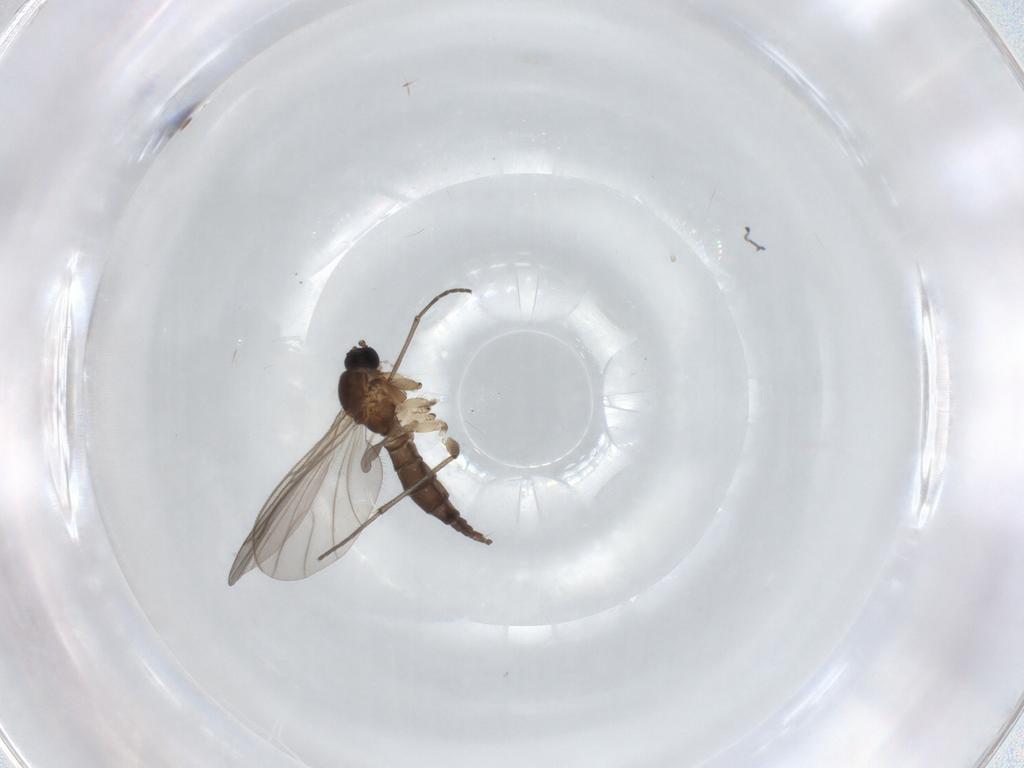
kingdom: Animalia
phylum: Arthropoda
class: Insecta
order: Diptera
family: Sciaridae
